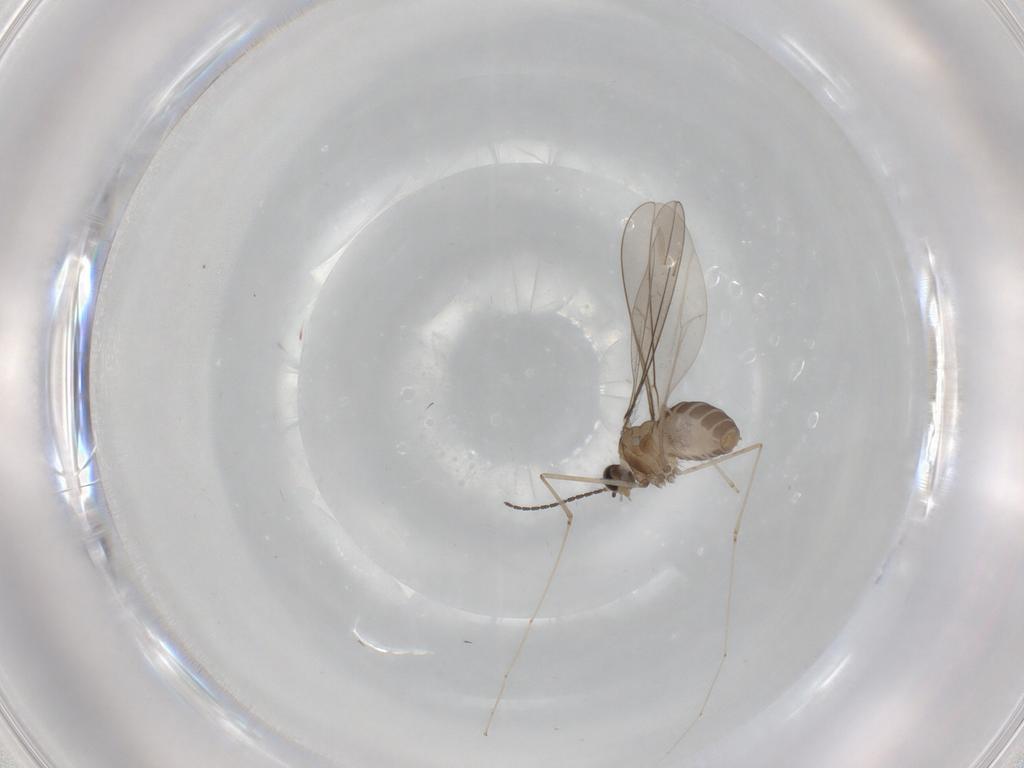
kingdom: Animalia
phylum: Arthropoda
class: Insecta
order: Diptera
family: Cecidomyiidae
